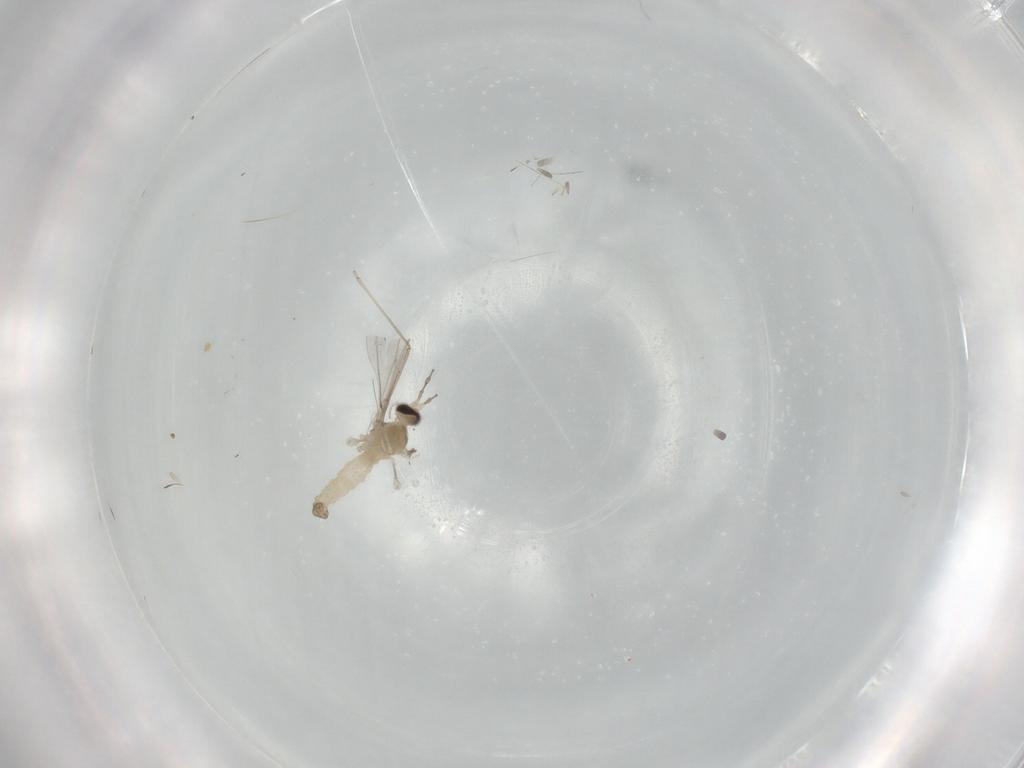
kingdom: Animalia
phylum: Arthropoda
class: Insecta
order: Diptera
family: Cecidomyiidae
